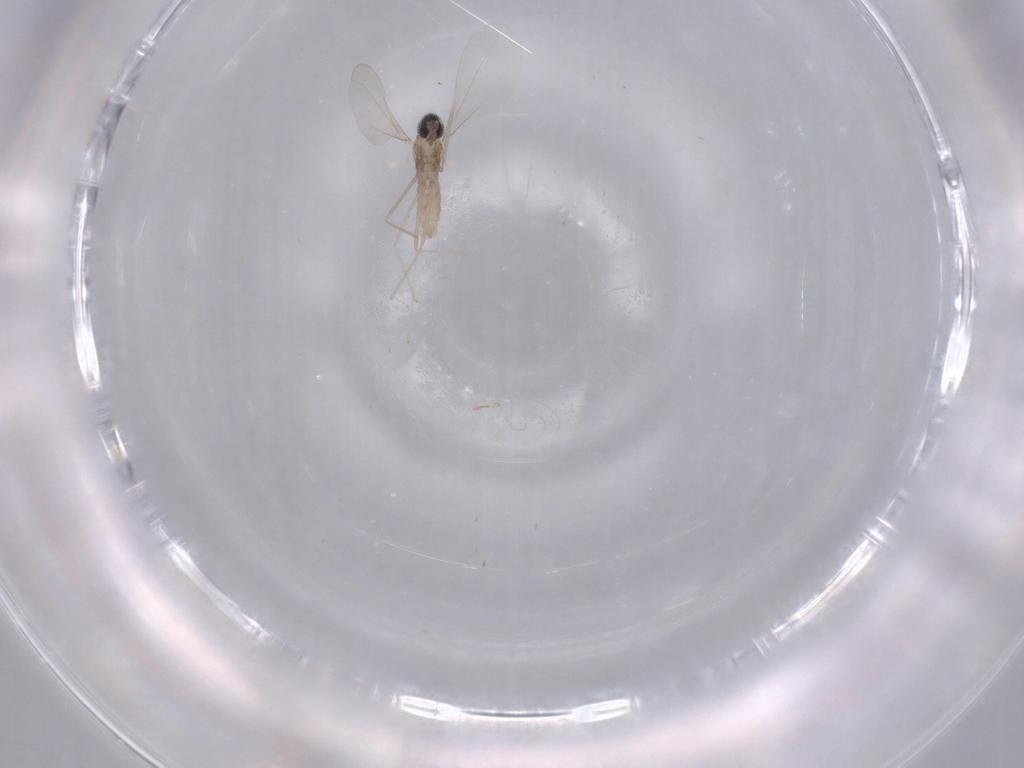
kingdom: Animalia
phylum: Arthropoda
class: Insecta
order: Diptera
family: Cecidomyiidae
